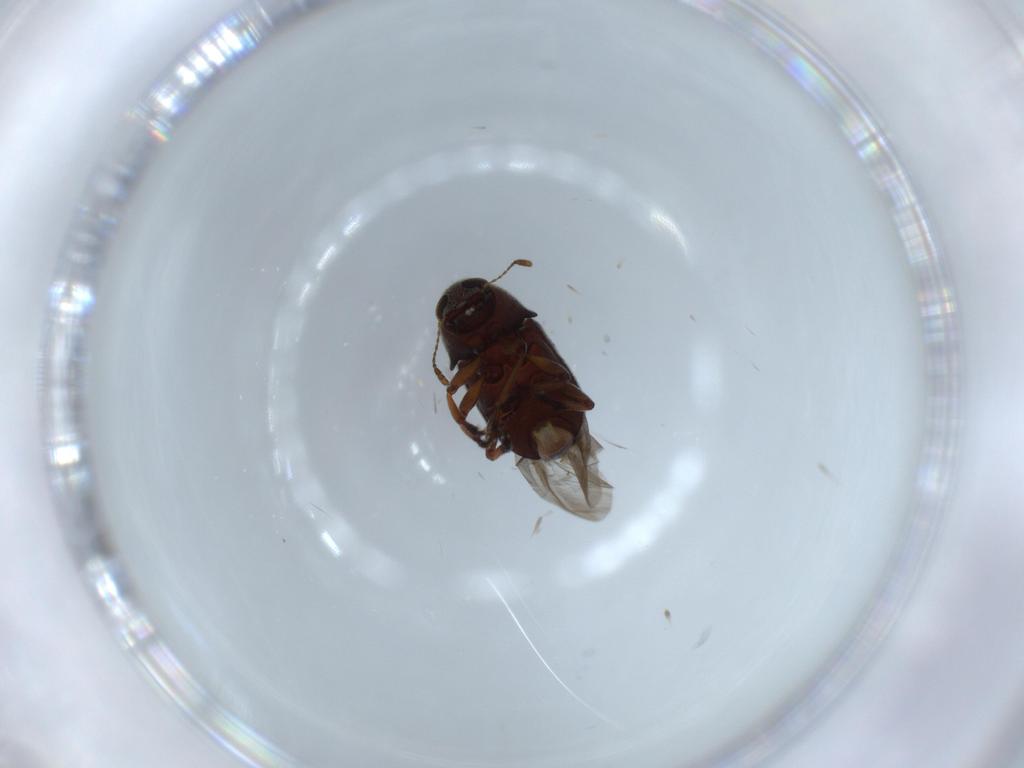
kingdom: Animalia
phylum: Arthropoda
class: Insecta
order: Coleoptera
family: Anthribidae
